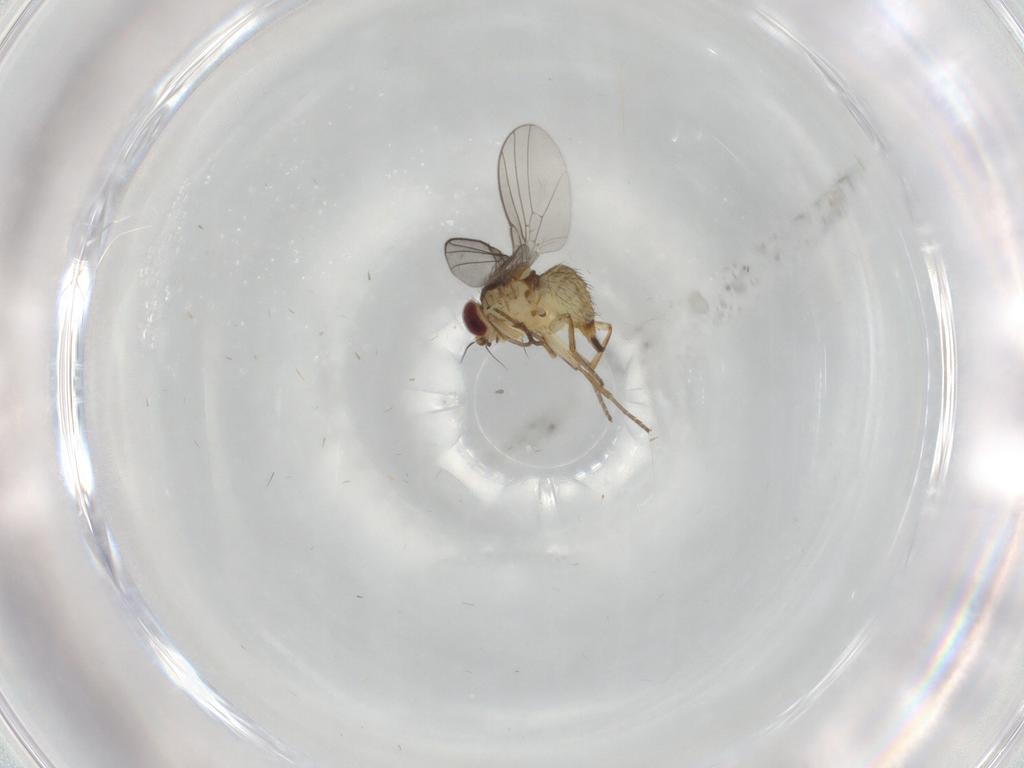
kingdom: Animalia
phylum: Arthropoda
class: Insecta
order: Diptera
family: Agromyzidae
